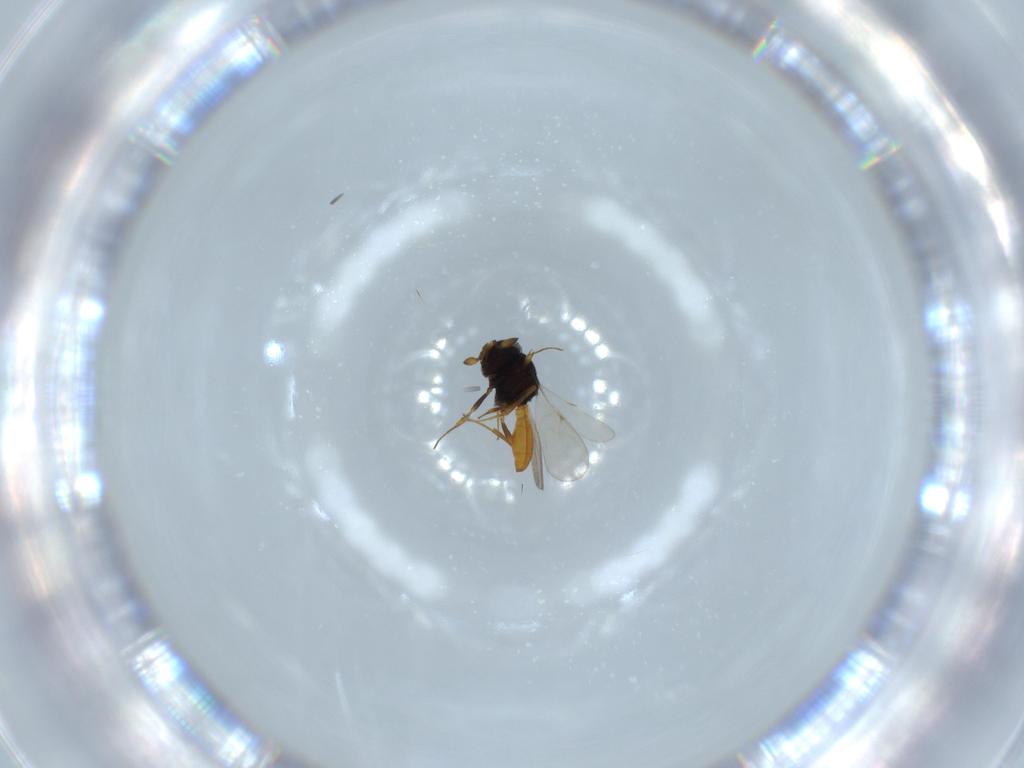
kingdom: Animalia
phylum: Arthropoda
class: Insecta
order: Hymenoptera
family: Scelionidae
